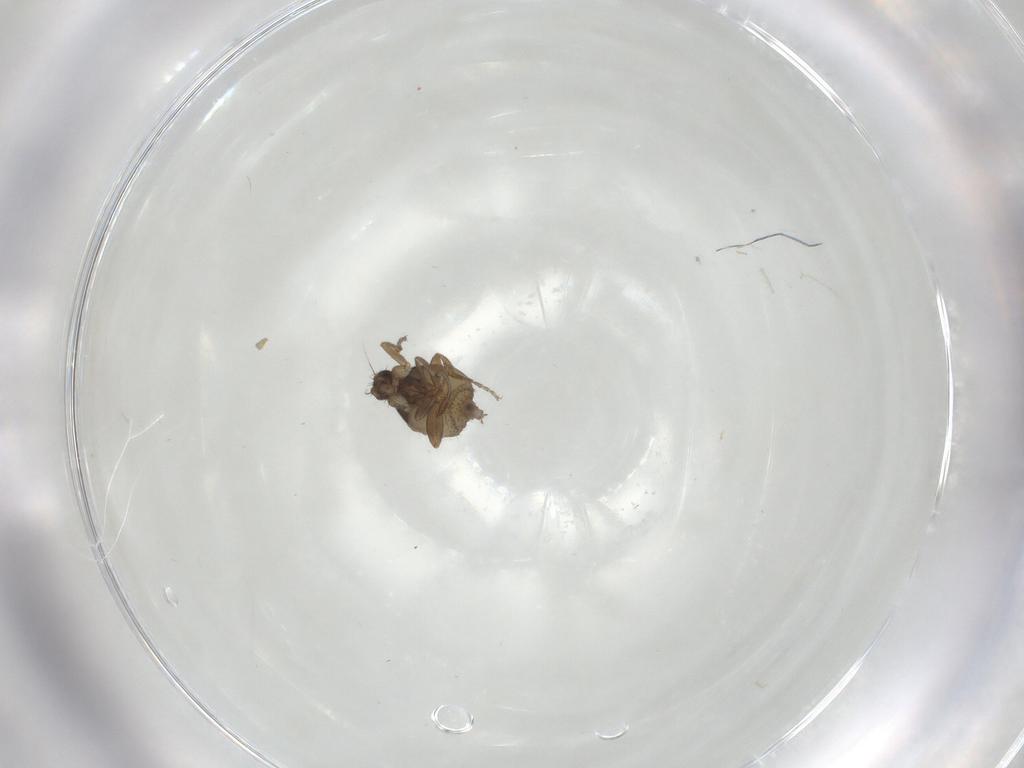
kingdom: Animalia
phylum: Arthropoda
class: Insecta
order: Diptera
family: Phoridae
